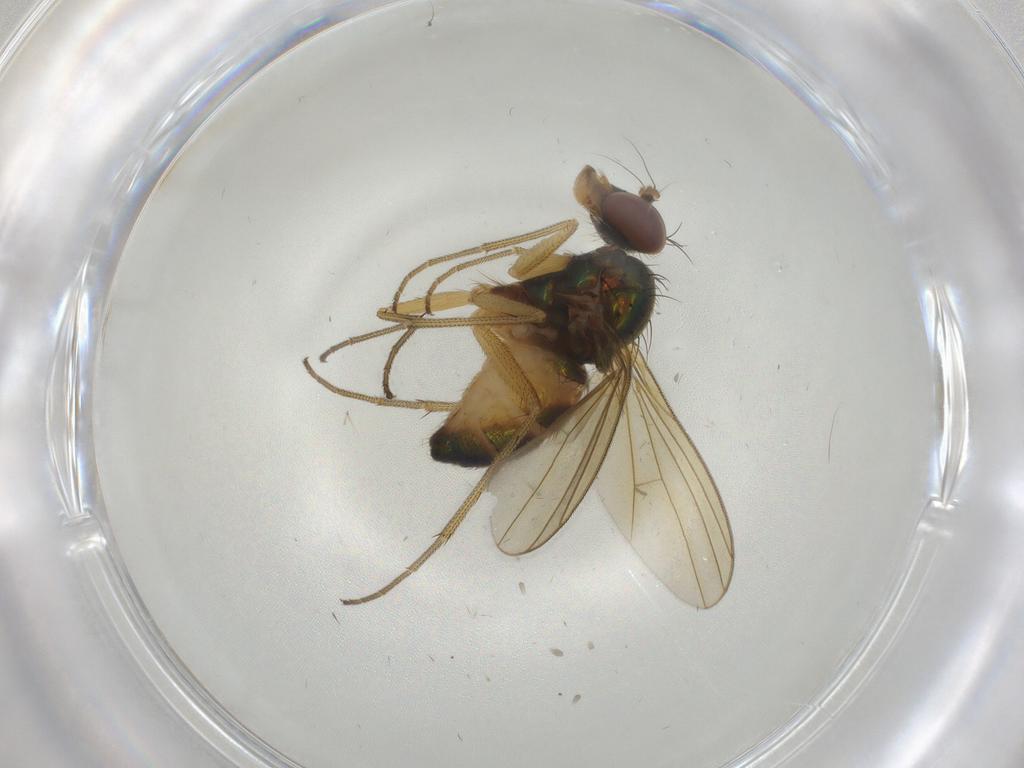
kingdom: Animalia
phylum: Arthropoda
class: Insecta
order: Diptera
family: Dolichopodidae
